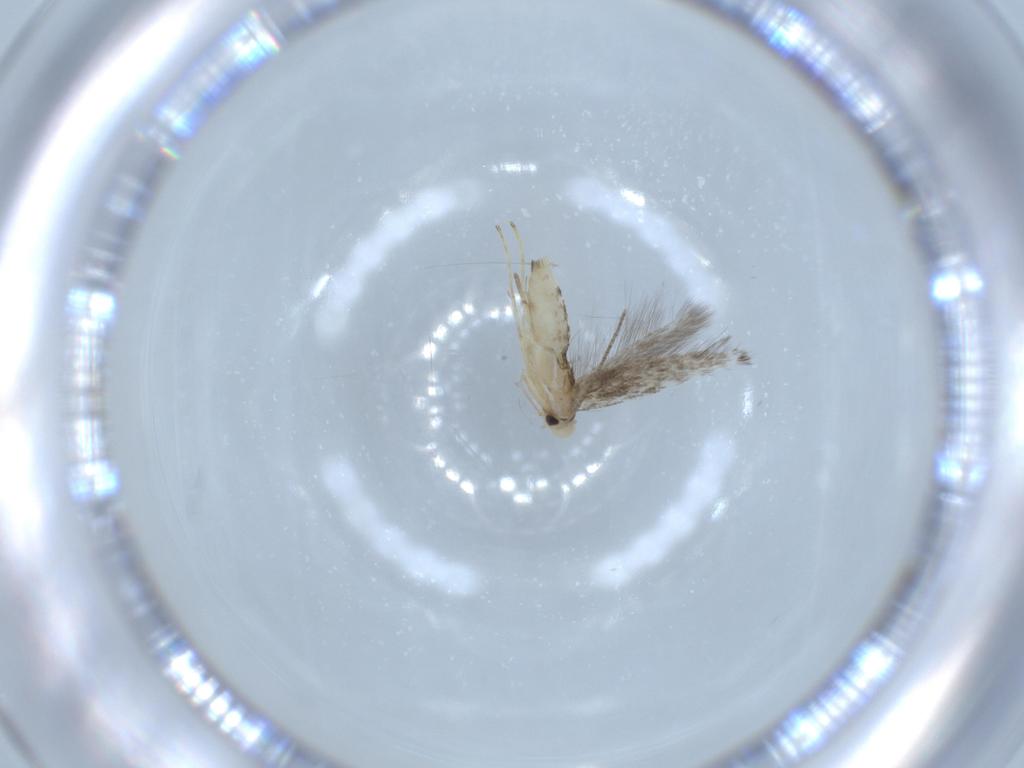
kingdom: Animalia
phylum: Arthropoda
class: Insecta
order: Lepidoptera
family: Gracillariidae
